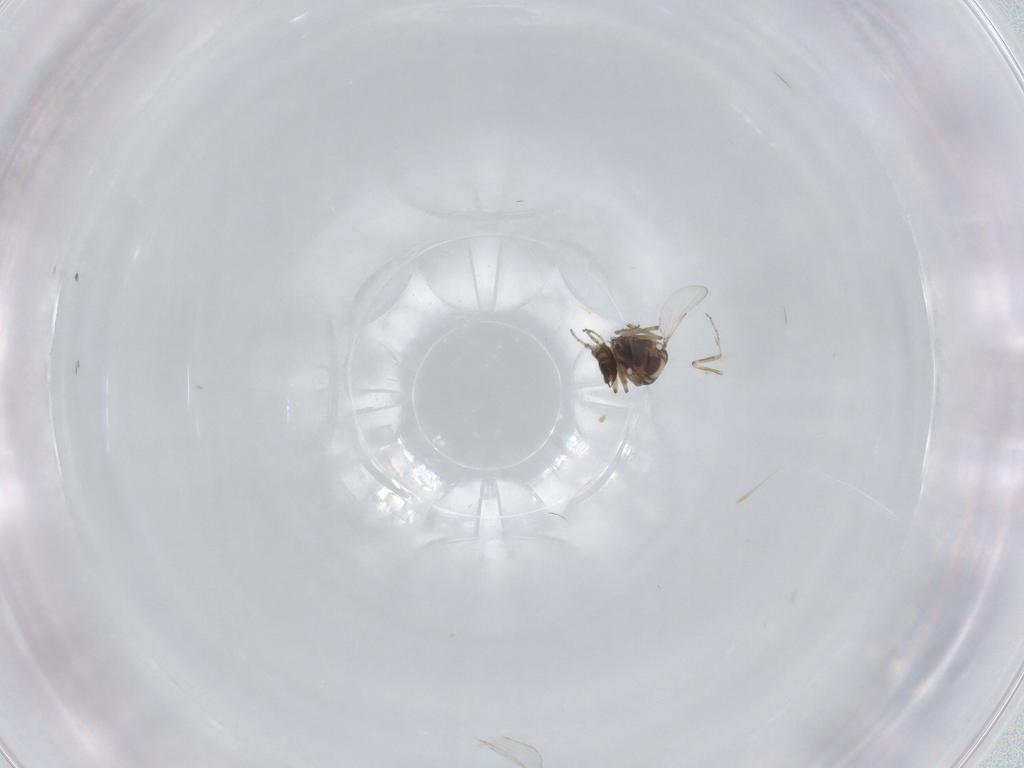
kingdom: Animalia
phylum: Arthropoda
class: Insecta
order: Diptera
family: Ceratopogonidae
